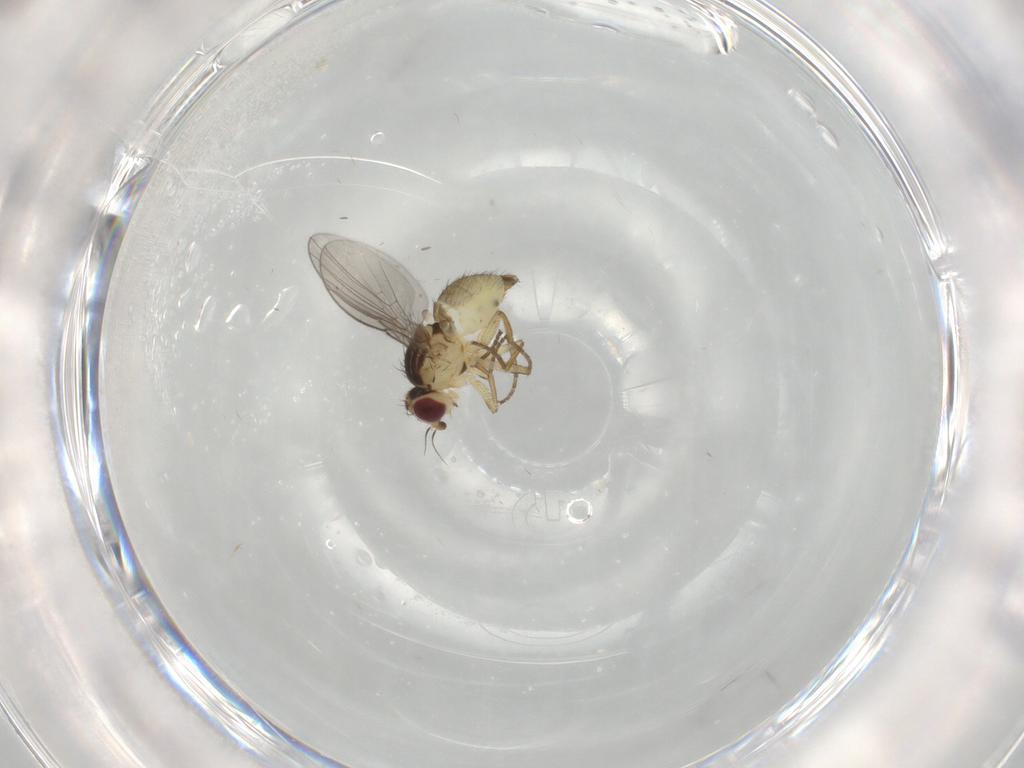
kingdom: Animalia
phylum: Arthropoda
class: Insecta
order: Diptera
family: Agromyzidae
